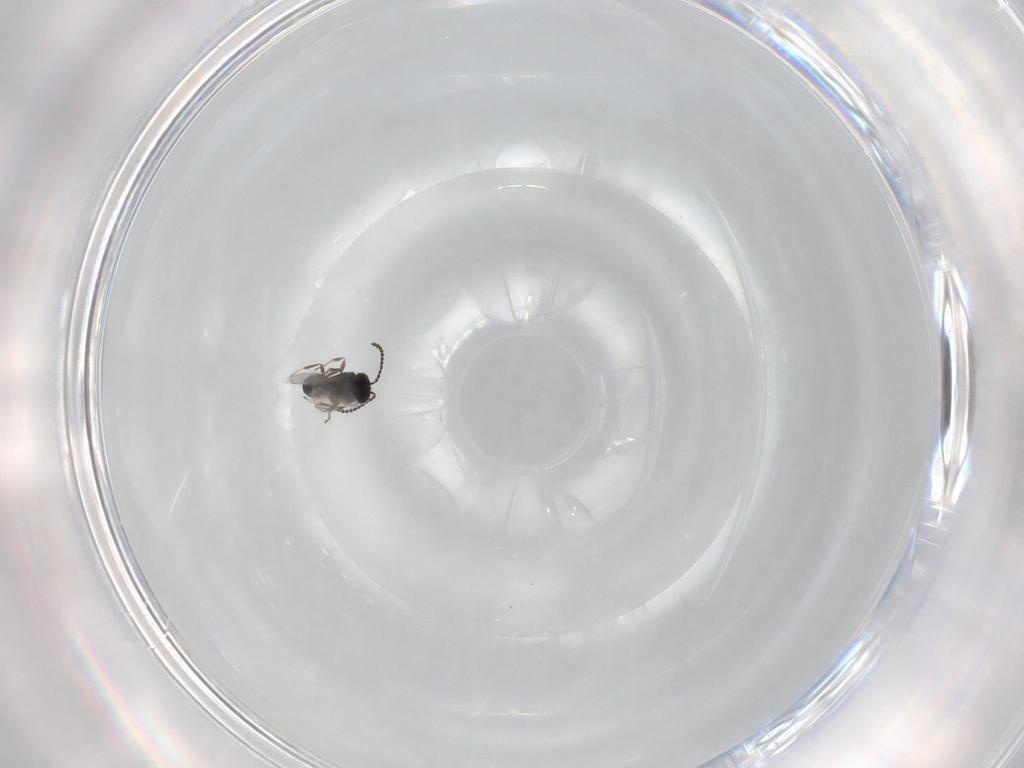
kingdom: Animalia
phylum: Arthropoda
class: Insecta
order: Hymenoptera
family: Scelionidae
